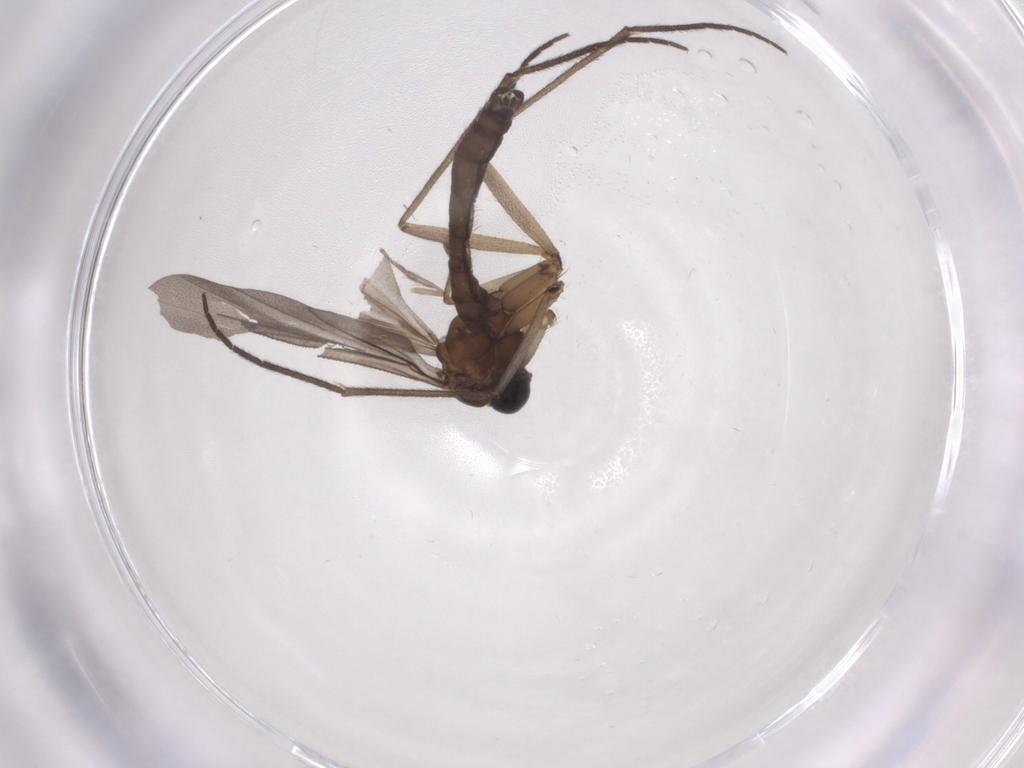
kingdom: Animalia
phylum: Arthropoda
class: Insecta
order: Diptera
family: Sciaridae
